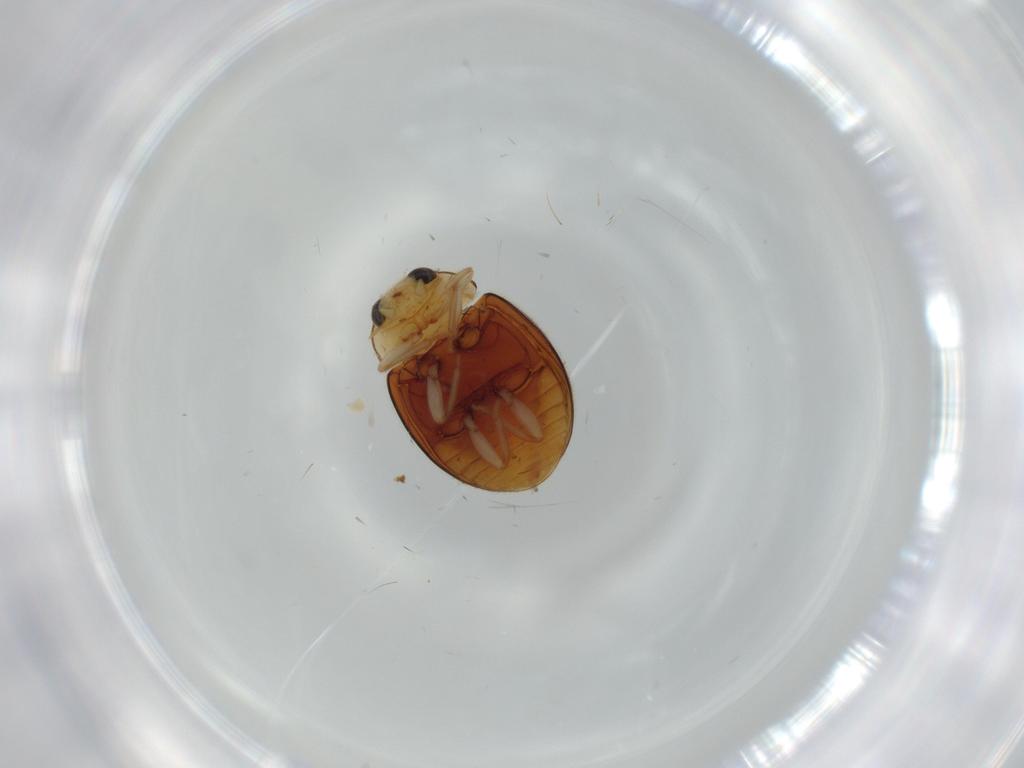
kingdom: Animalia
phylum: Arthropoda
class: Insecta
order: Coleoptera
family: Coccinellidae
